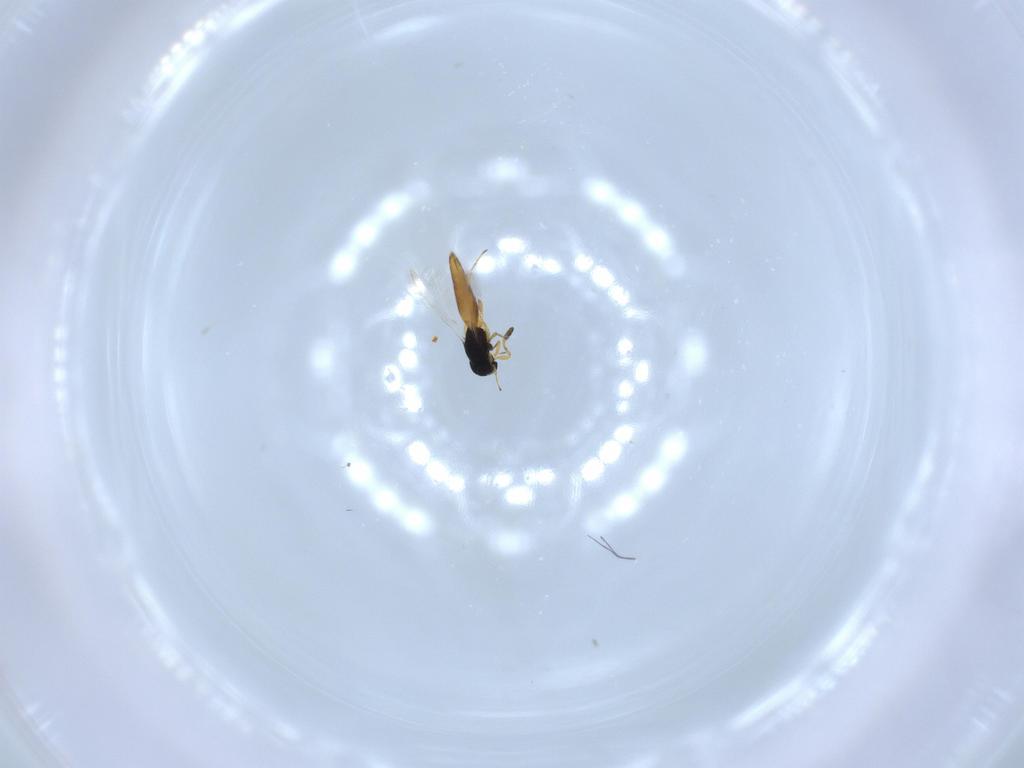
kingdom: Animalia
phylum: Arthropoda
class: Insecta
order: Hymenoptera
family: Scelionidae
